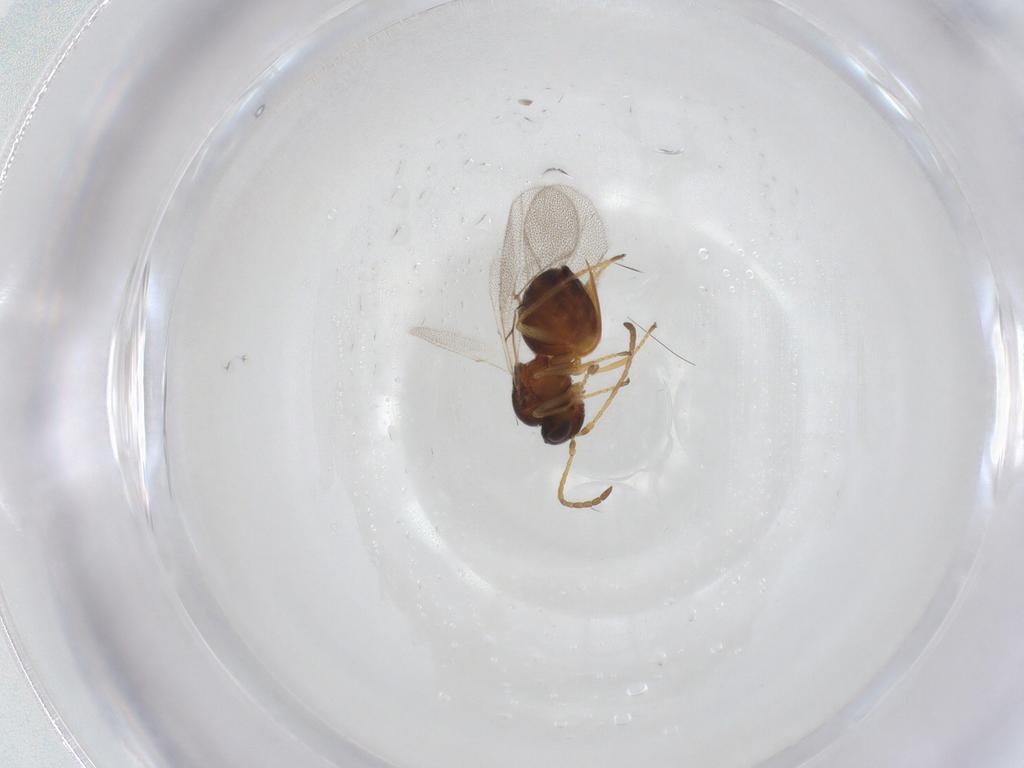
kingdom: Animalia
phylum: Arthropoda
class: Insecta
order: Hymenoptera
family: Cynipidae
